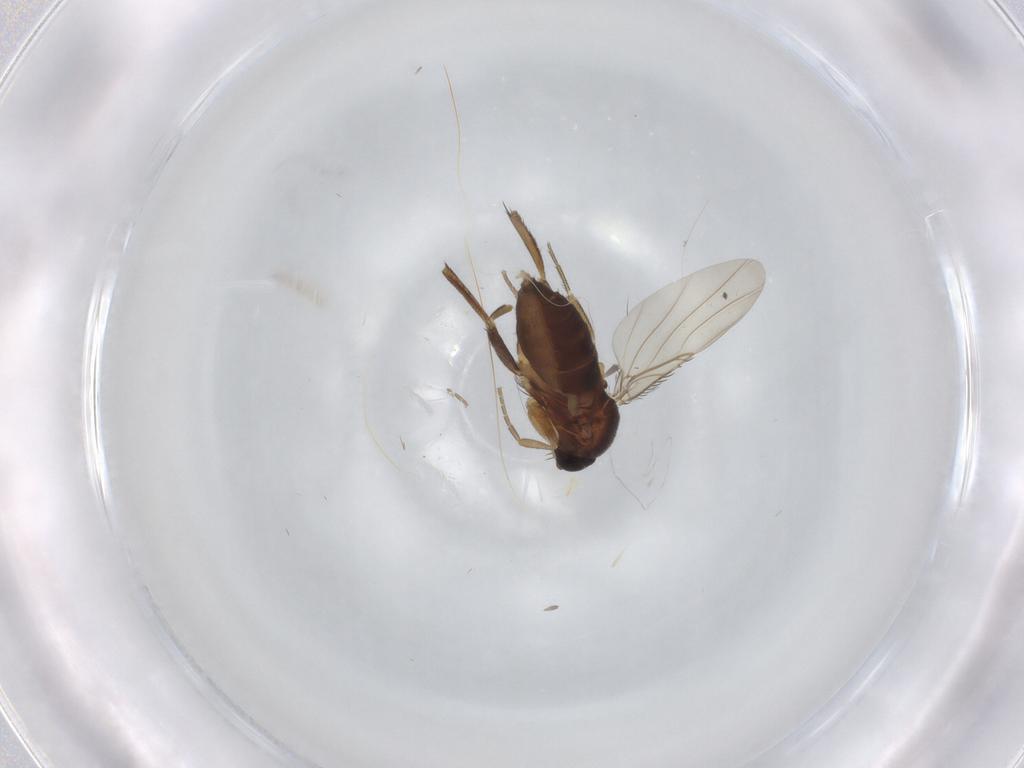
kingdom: Animalia
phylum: Arthropoda
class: Insecta
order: Diptera
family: Phoridae
